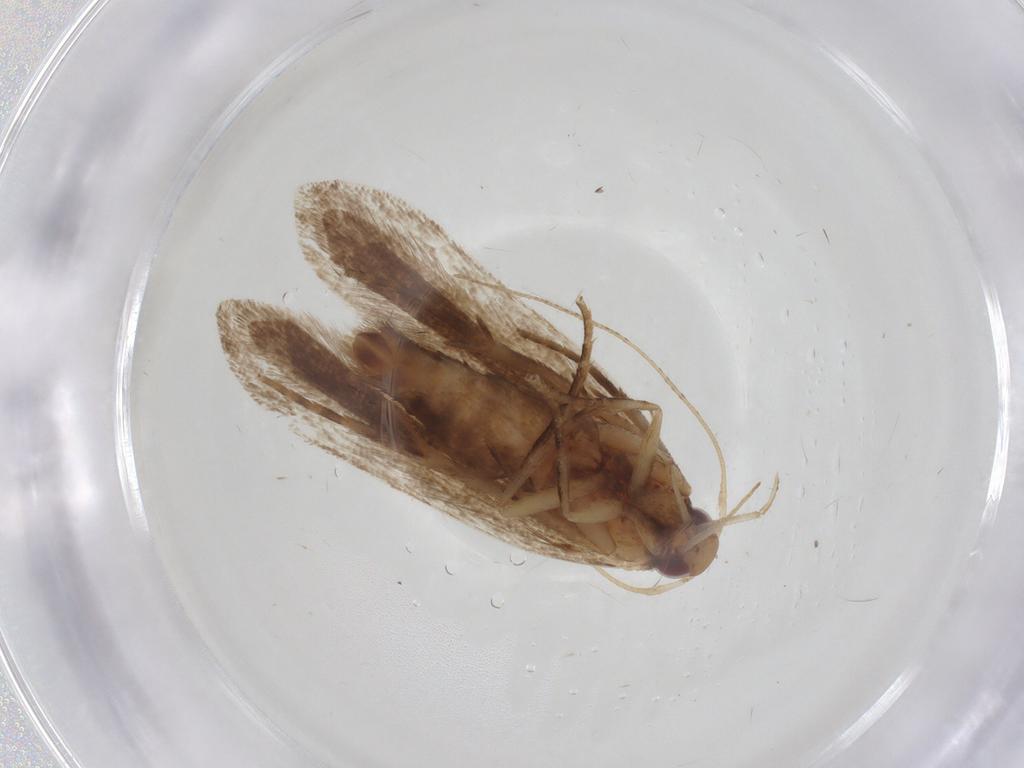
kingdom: Animalia
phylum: Arthropoda
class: Insecta
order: Lepidoptera
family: Gelechiidae
